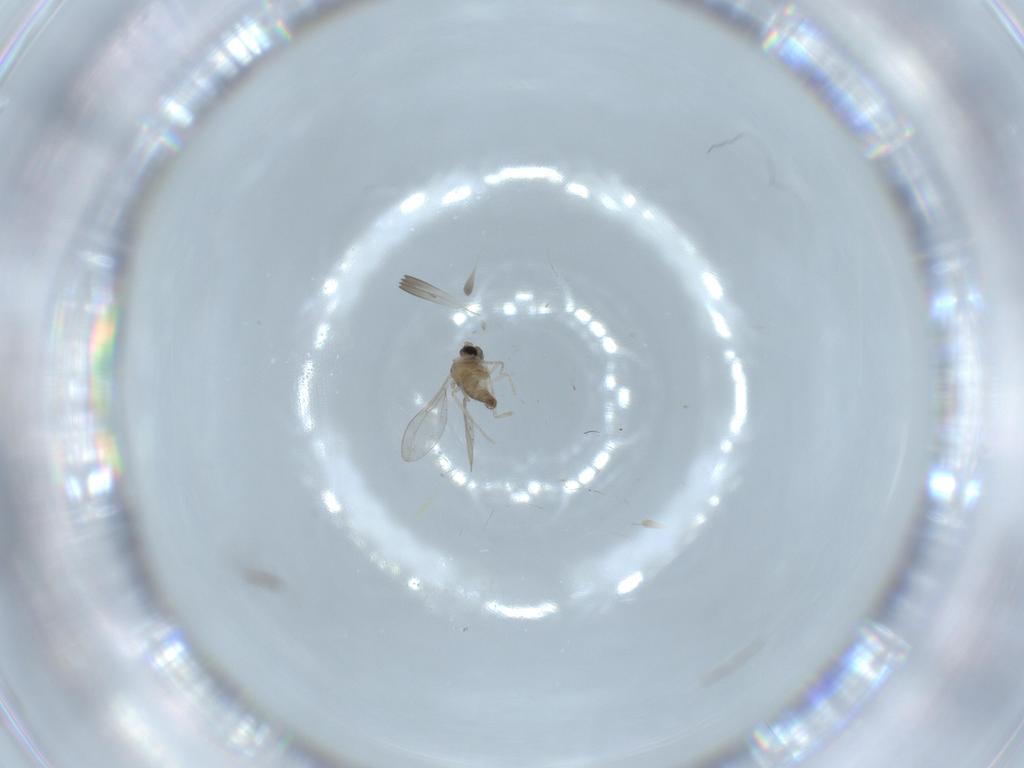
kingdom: Animalia
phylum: Arthropoda
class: Insecta
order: Diptera
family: Cecidomyiidae
